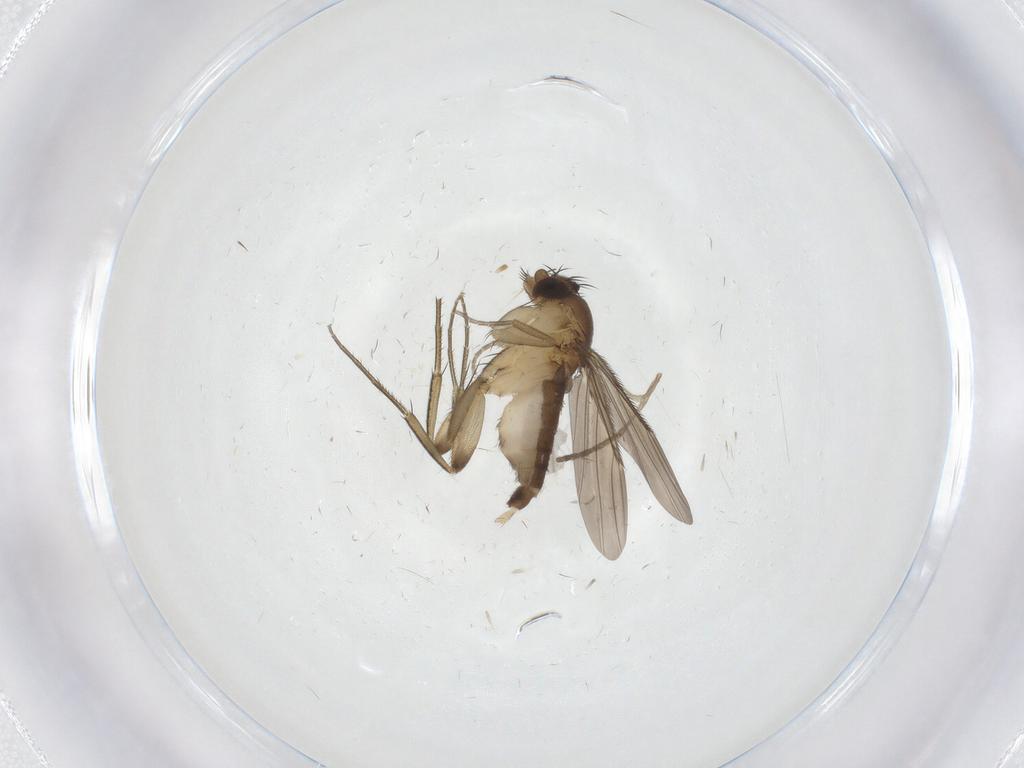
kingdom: Animalia
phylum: Arthropoda
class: Insecta
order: Diptera
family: Phoridae
